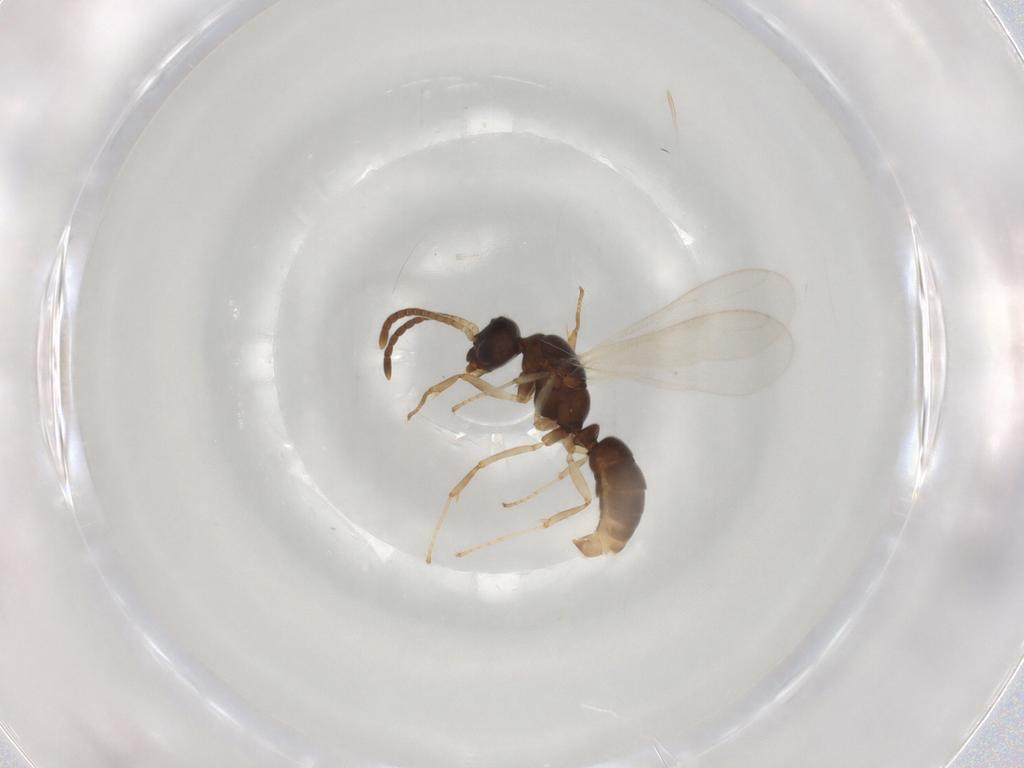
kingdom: Animalia
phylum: Arthropoda
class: Insecta
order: Hymenoptera
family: Formicidae
